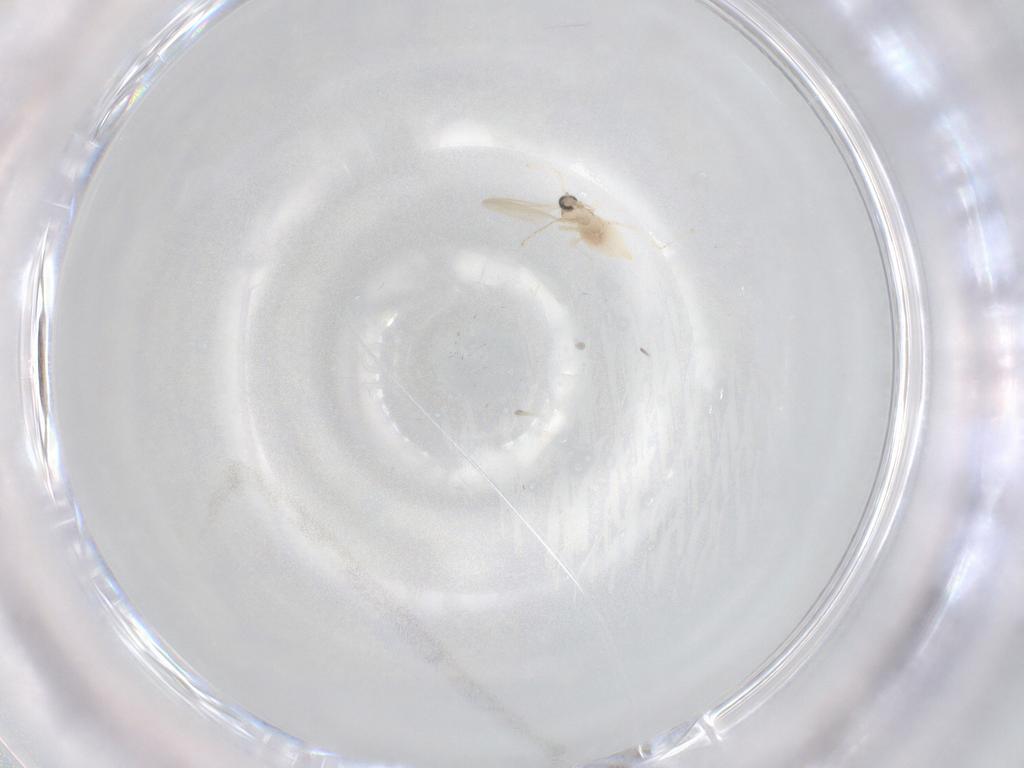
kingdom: Animalia
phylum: Arthropoda
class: Insecta
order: Diptera
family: Cecidomyiidae
